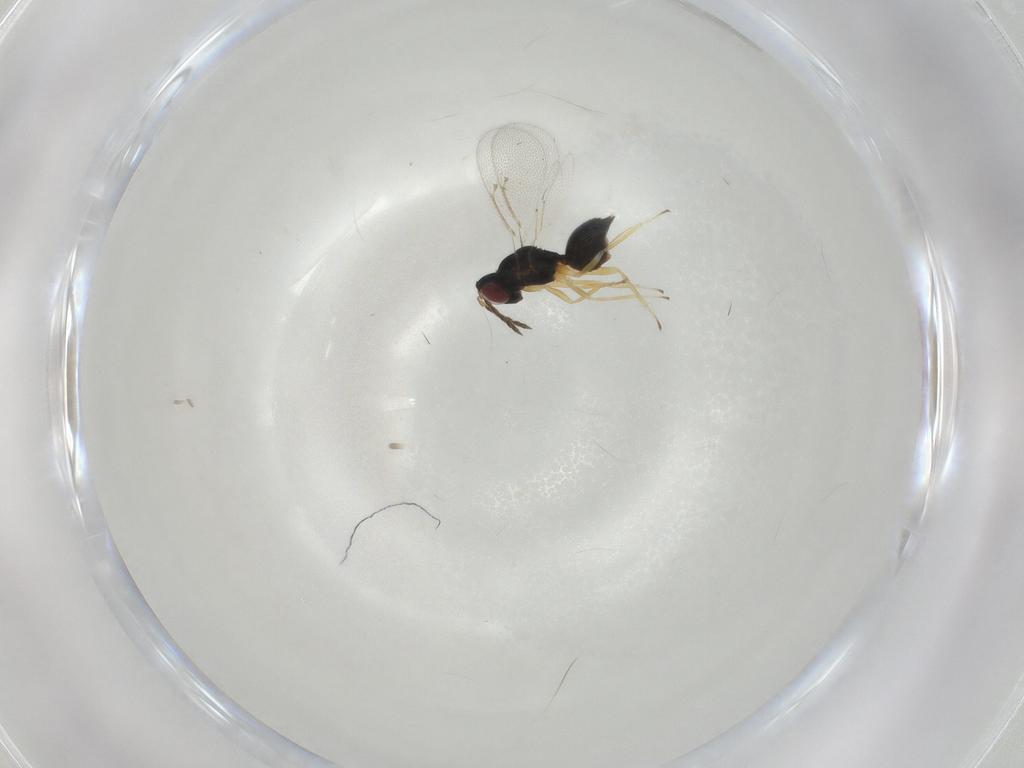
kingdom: Animalia
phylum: Arthropoda
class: Insecta
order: Hymenoptera
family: Eulophidae
